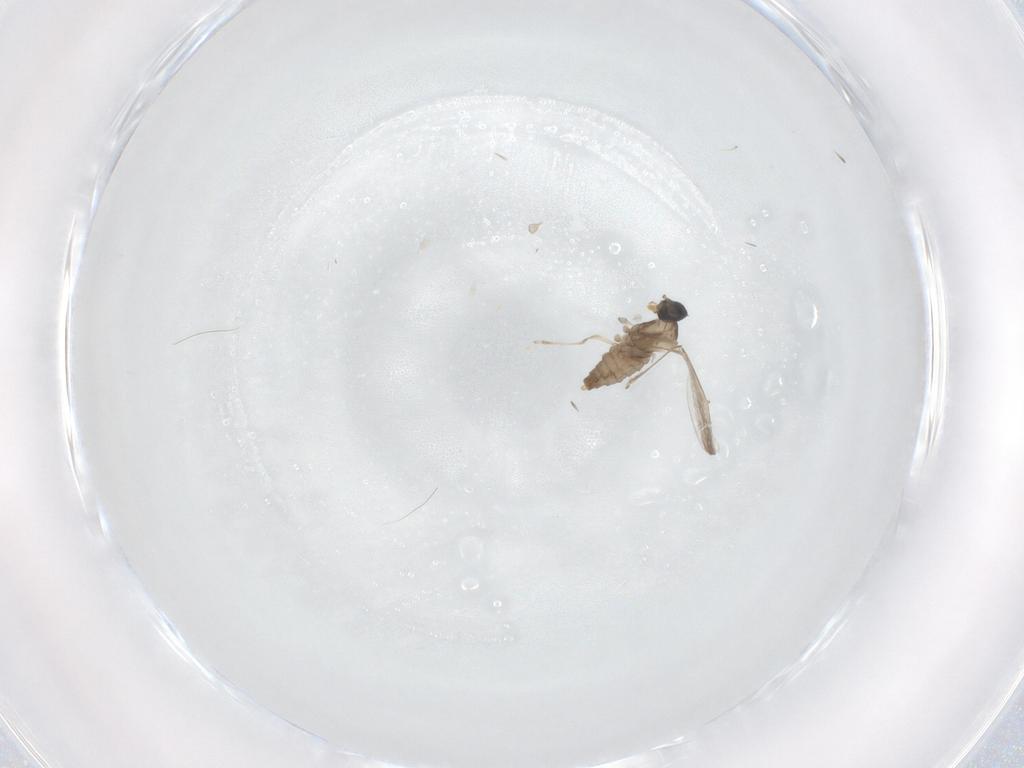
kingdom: Animalia
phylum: Arthropoda
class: Insecta
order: Diptera
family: Cecidomyiidae
